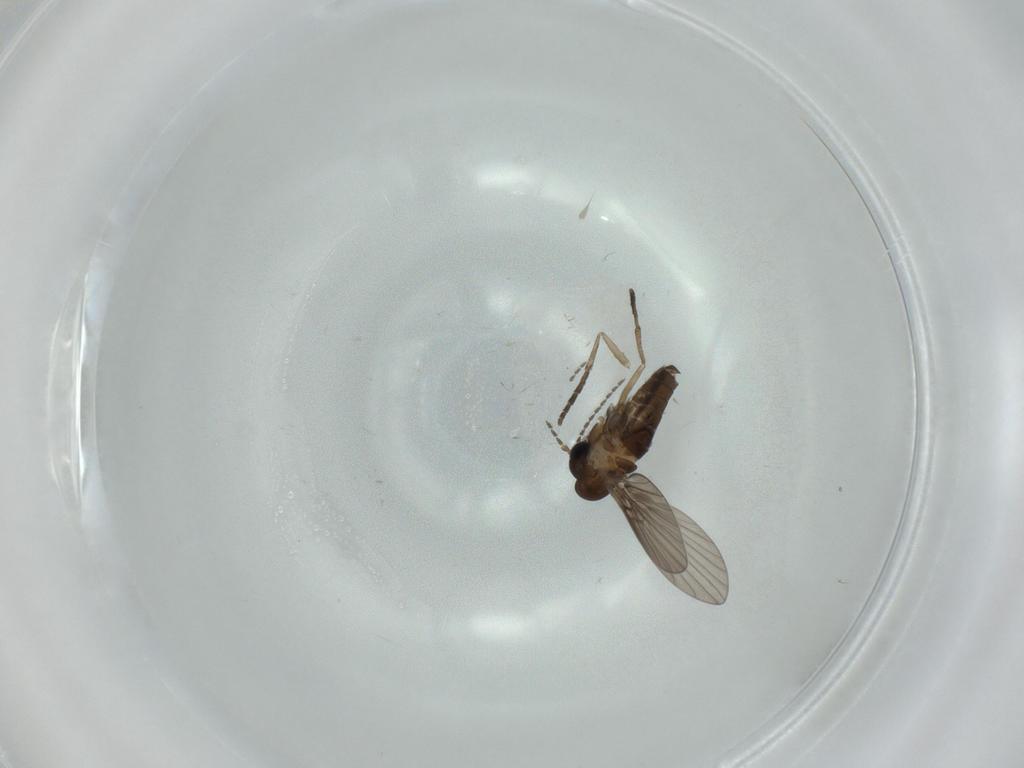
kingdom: Animalia
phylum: Arthropoda
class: Insecta
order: Diptera
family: Psychodidae
